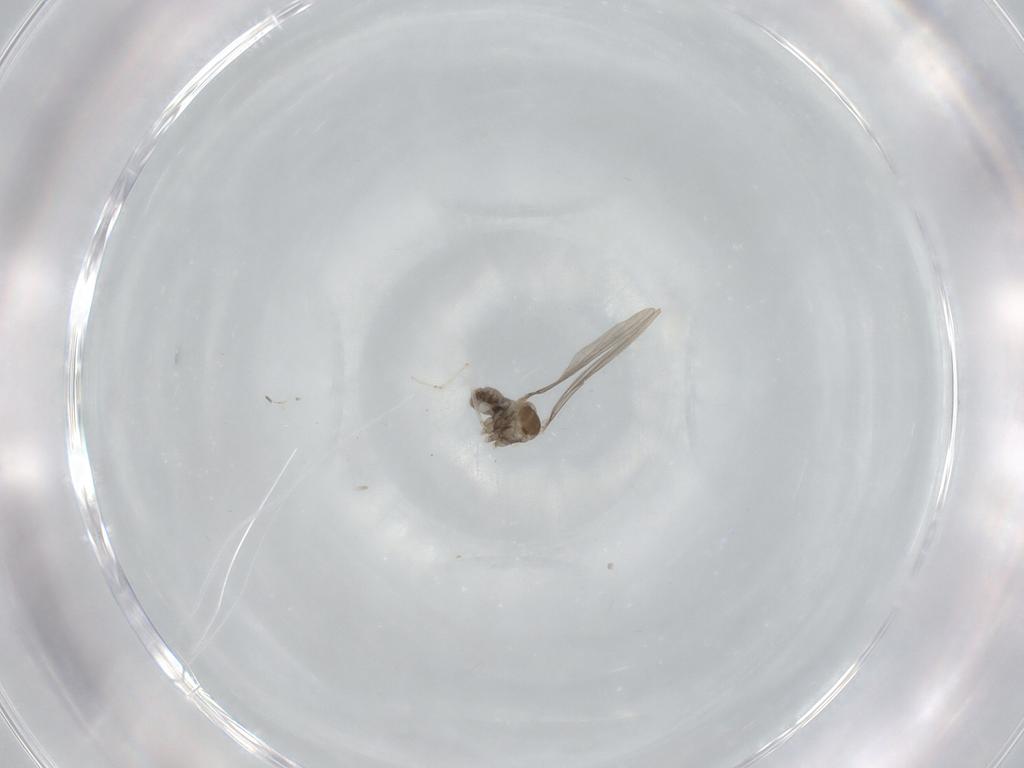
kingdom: Animalia
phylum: Arthropoda
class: Insecta
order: Diptera
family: Cecidomyiidae
